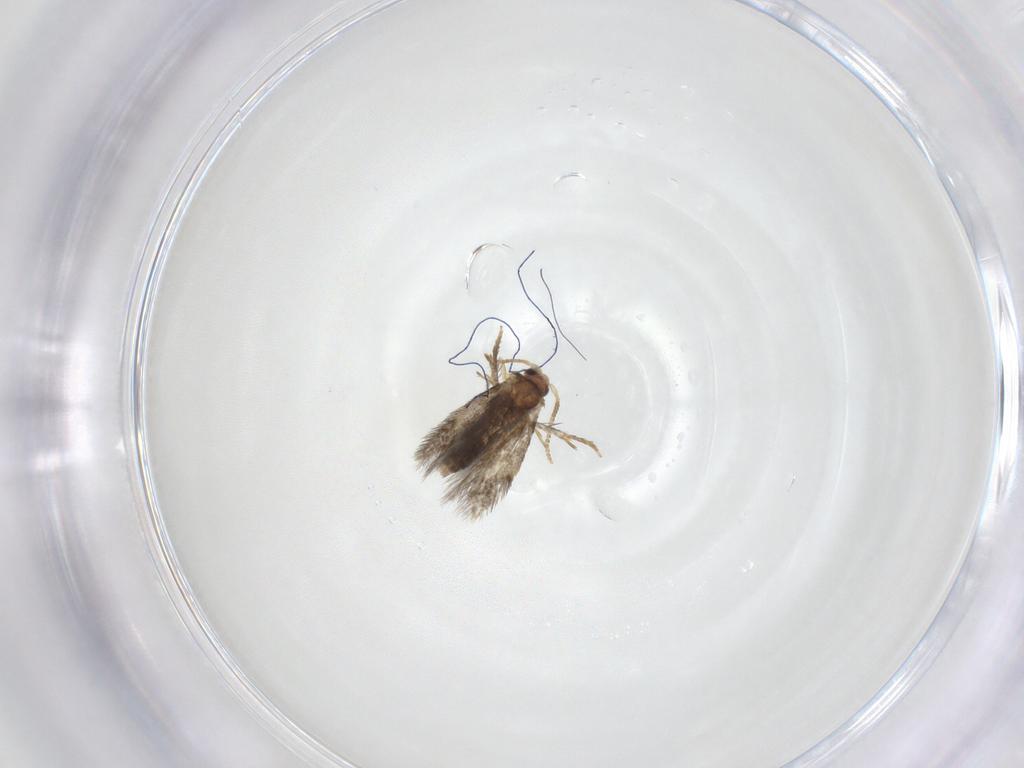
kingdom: Animalia
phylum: Arthropoda
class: Insecta
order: Lepidoptera
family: Copromorphidae
